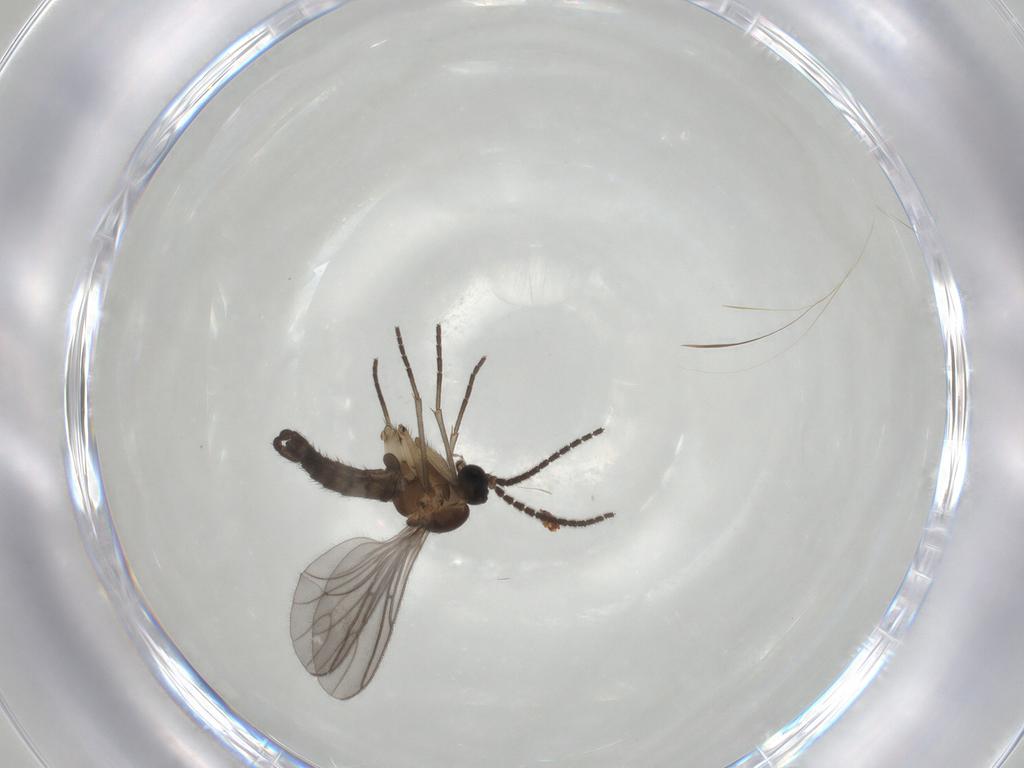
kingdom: Animalia
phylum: Arthropoda
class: Insecta
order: Diptera
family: Sciaridae
